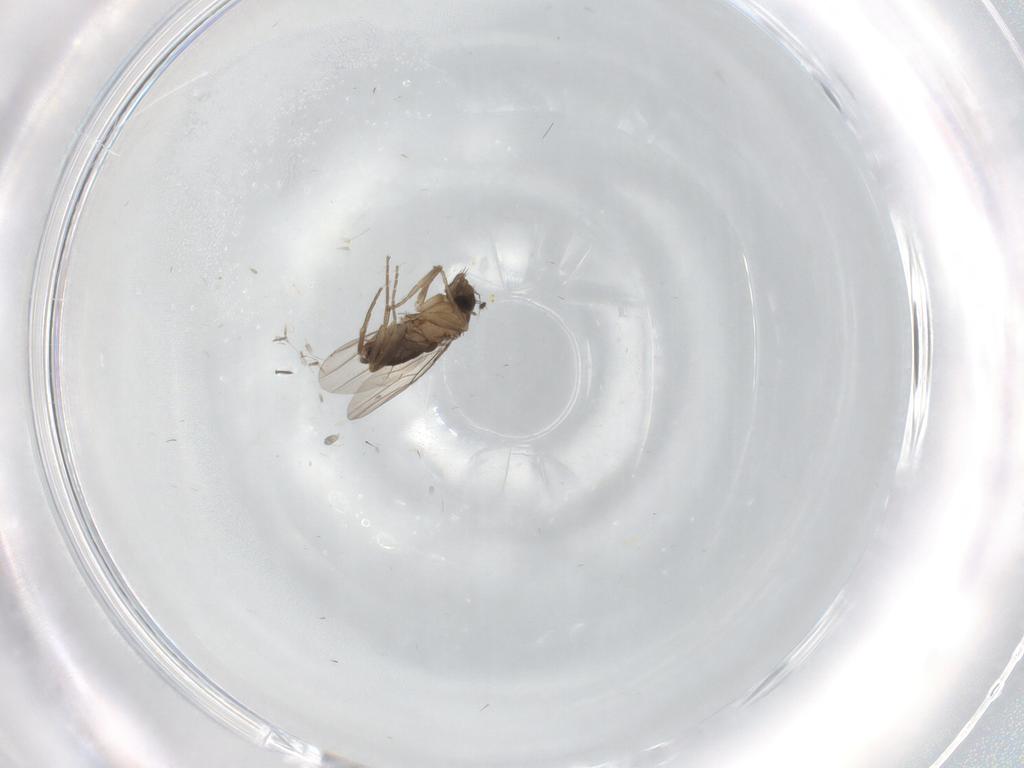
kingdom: Animalia
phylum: Arthropoda
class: Insecta
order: Diptera
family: Phoridae
